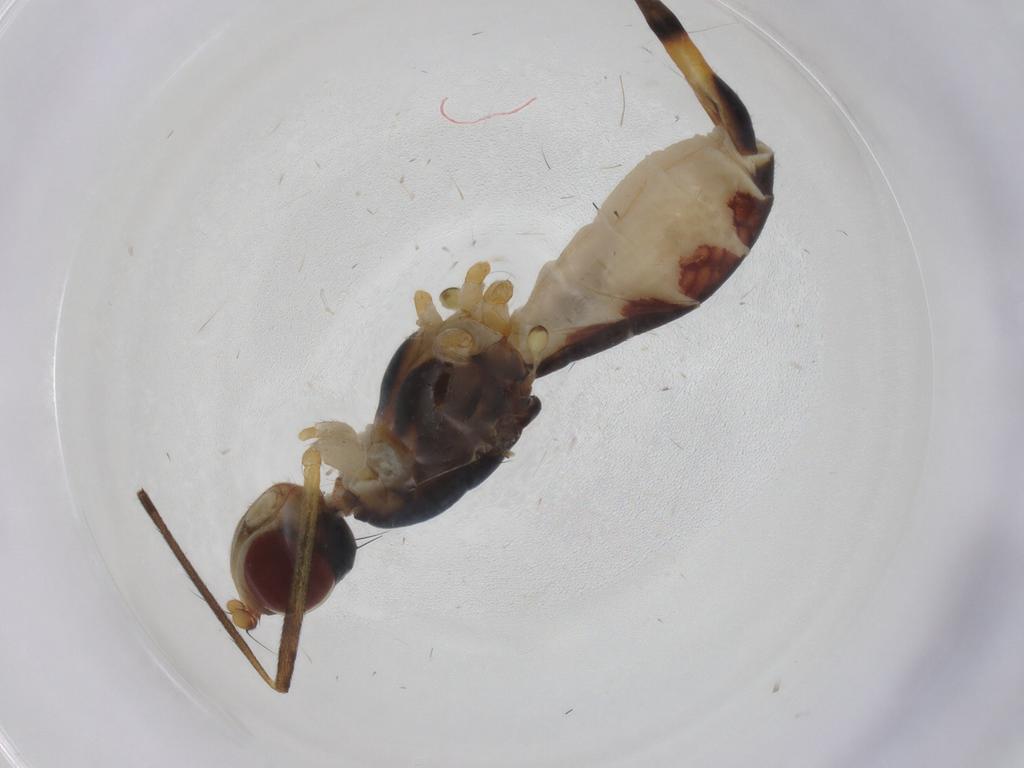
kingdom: Animalia
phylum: Arthropoda
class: Insecta
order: Diptera
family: Micropezidae
